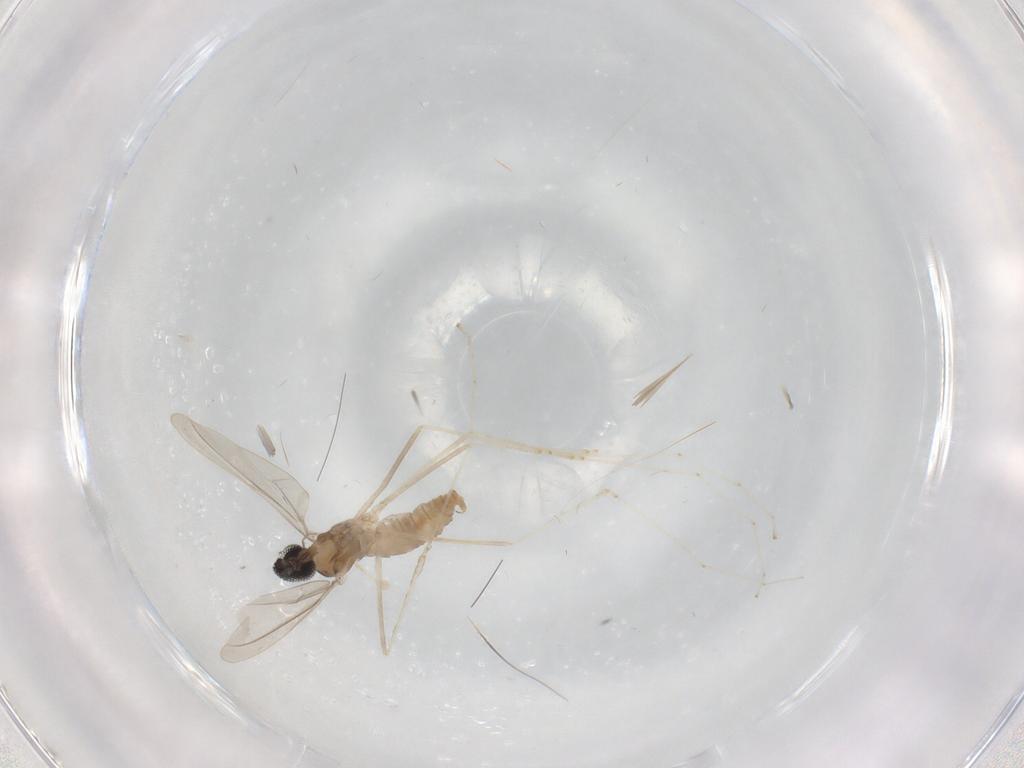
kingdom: Animalia
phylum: Arthropoda
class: Insecta
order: Diptera
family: Phoridae
